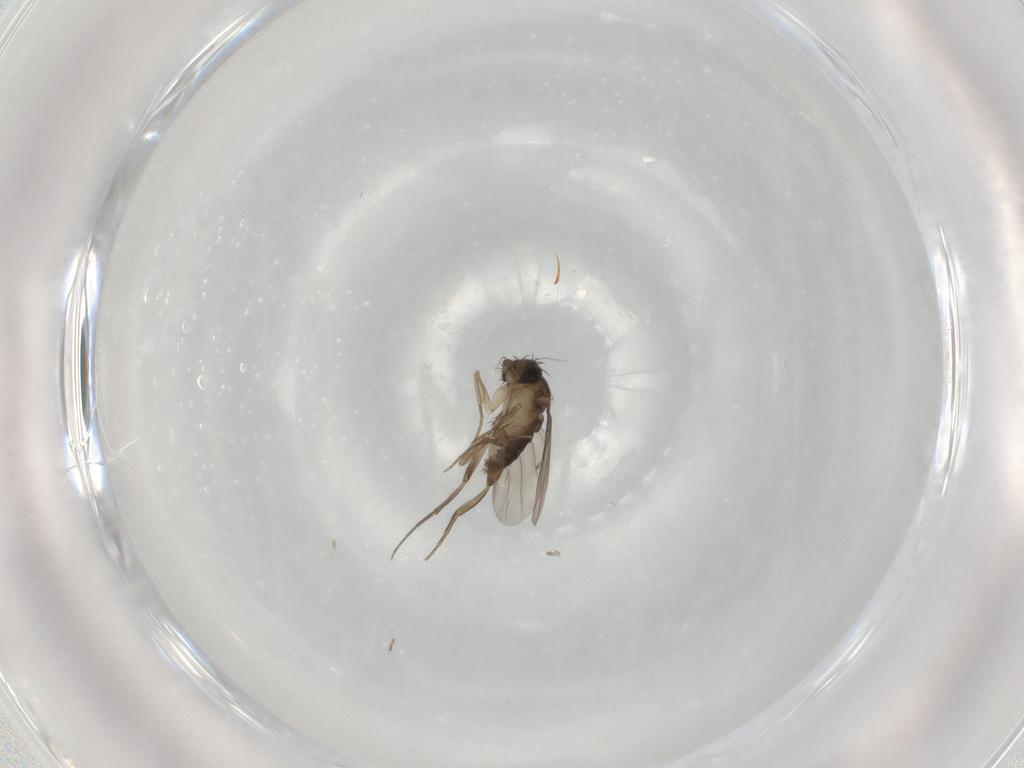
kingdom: Animalia
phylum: Arthropoda
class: Insecta
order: Diptera
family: Phoridae
